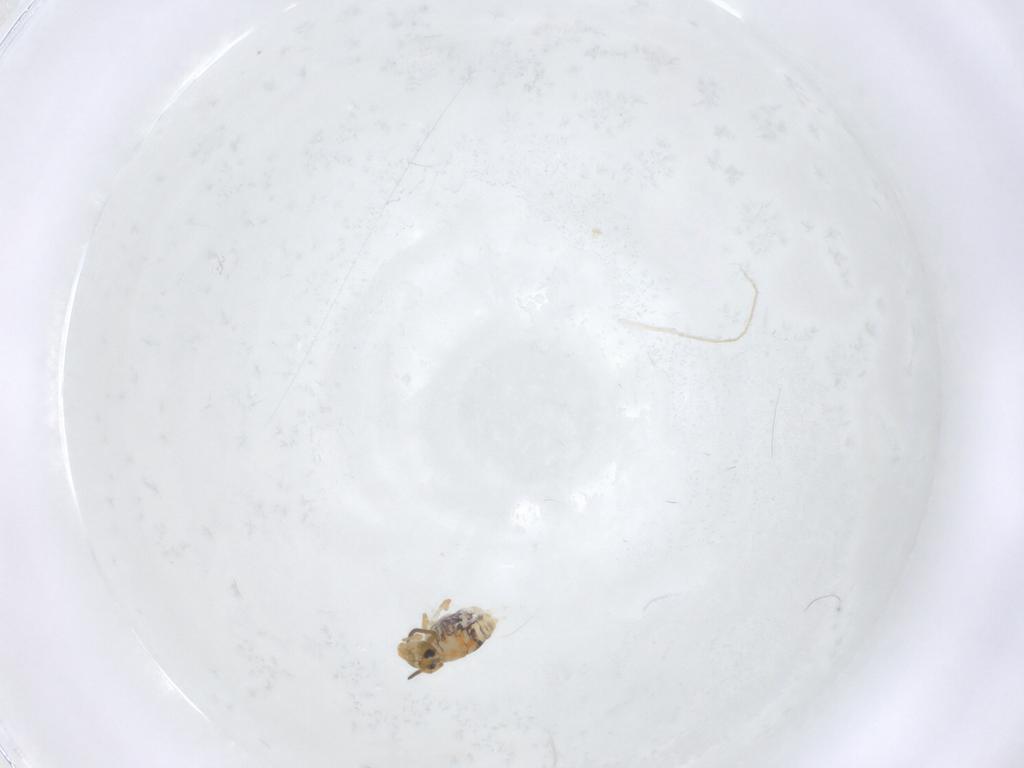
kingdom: Animalia
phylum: Arthropoda
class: Collembola
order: Symphypleona
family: Katiannidae
